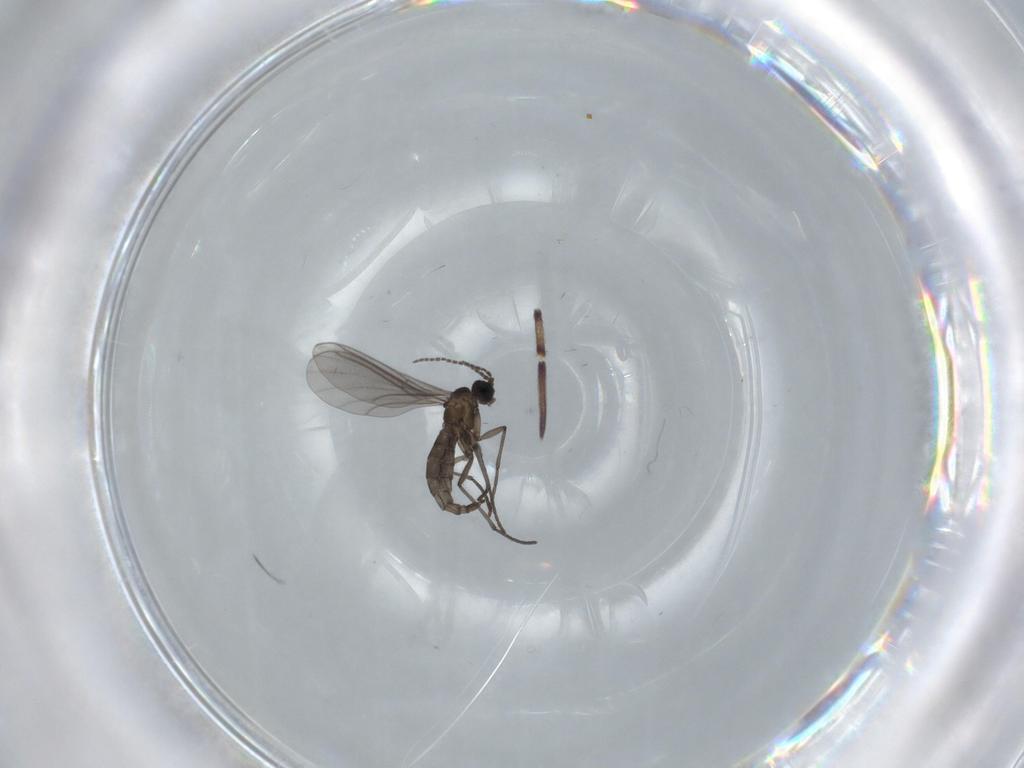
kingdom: Animalia
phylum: Arthropoda
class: Insecta
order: Diptera
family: Sciaridae
